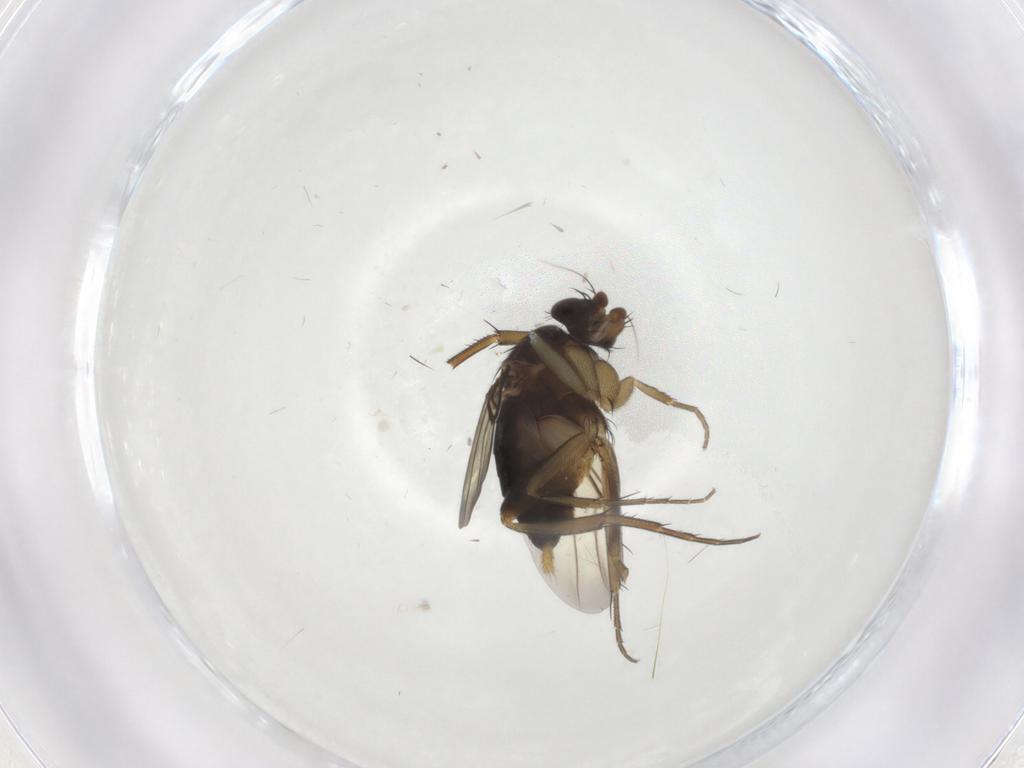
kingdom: Animalia
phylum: Arthropoda
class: Insecta
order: Diptera
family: Phoridae
